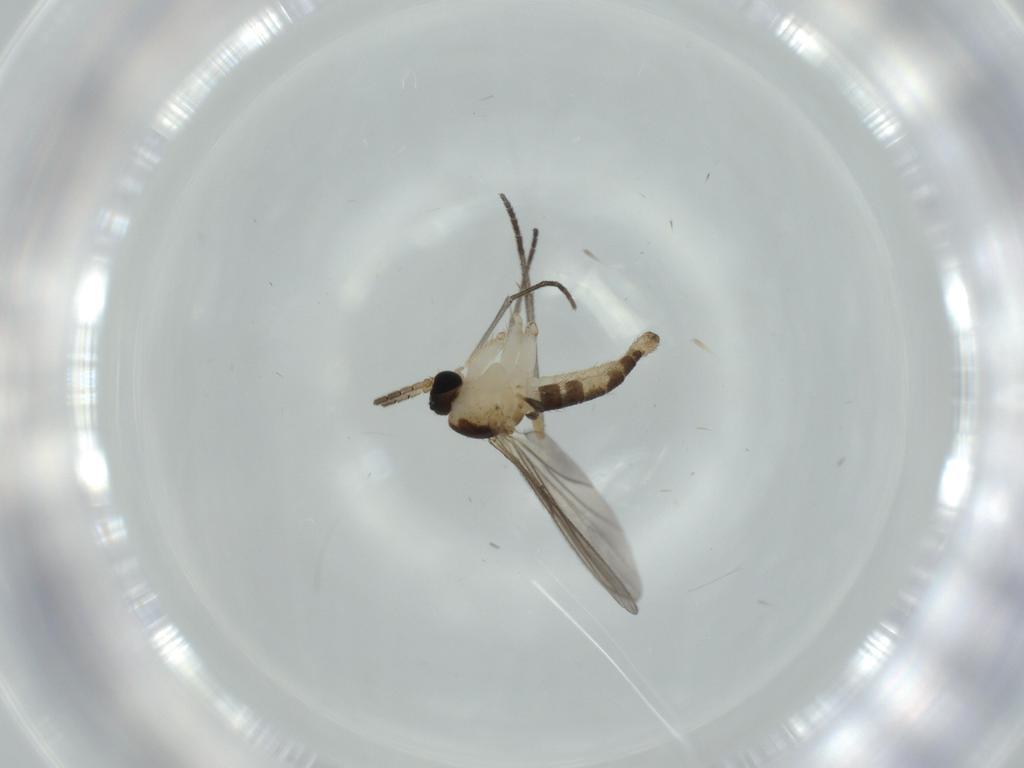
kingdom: Animalia
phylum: Arthropoda
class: Insecta
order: Diptera
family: Sciaridae
